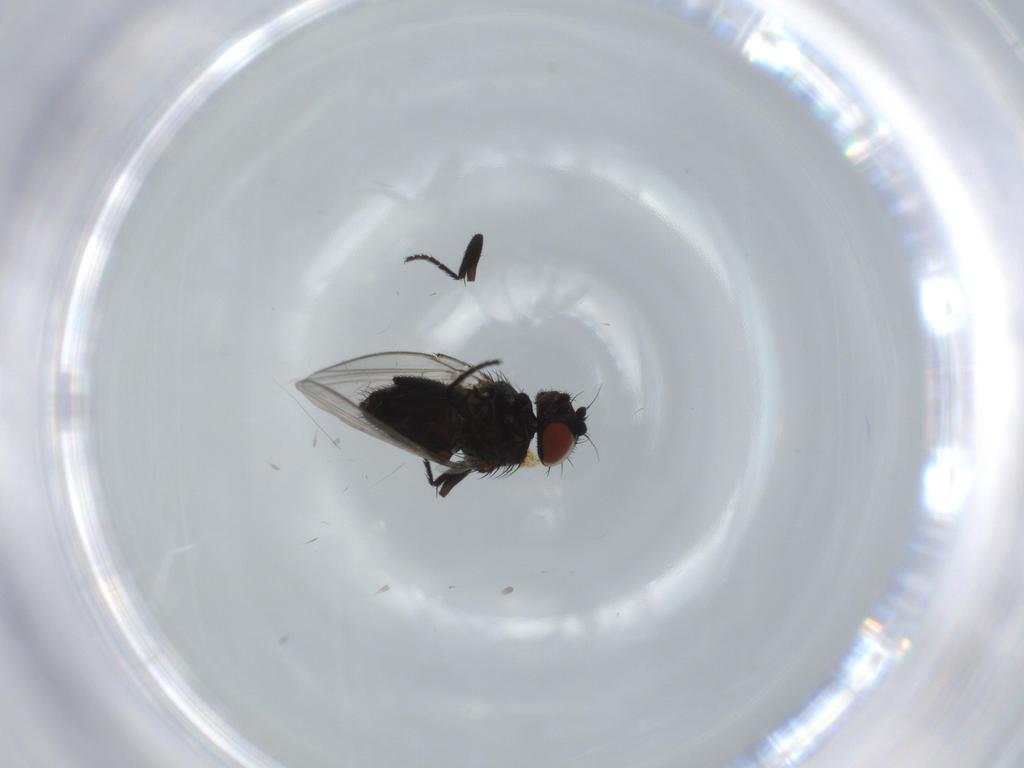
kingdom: Animalia
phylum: Arthropoda
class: Insecta
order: Diptera
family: Milichiidae
